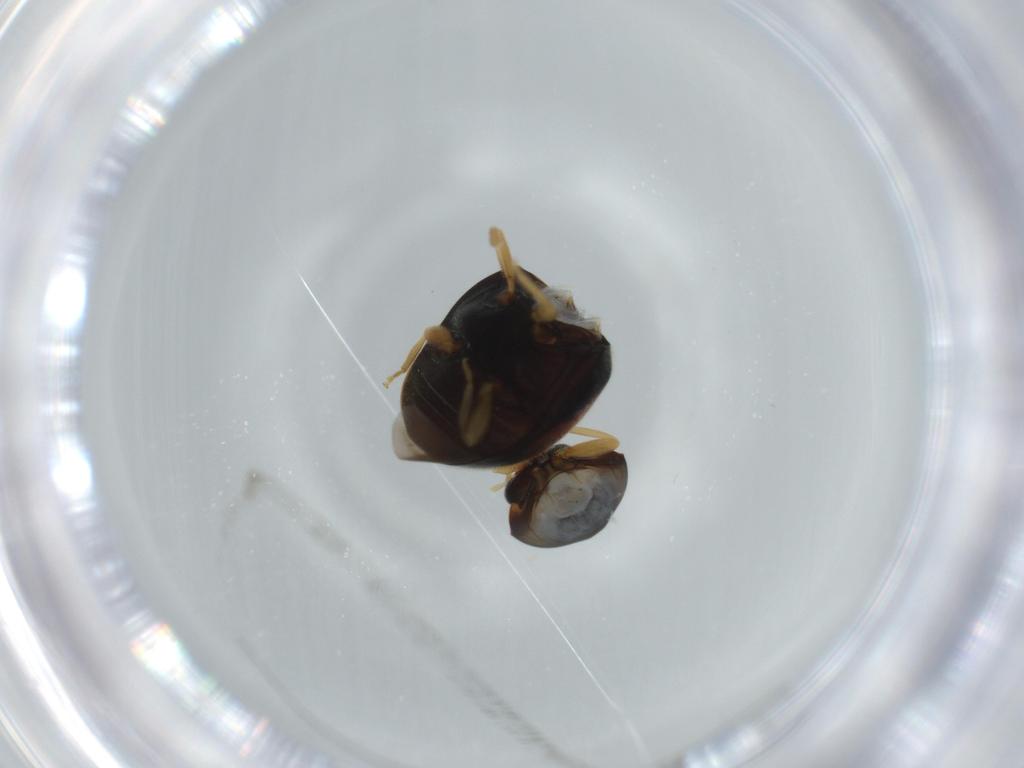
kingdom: Animalia
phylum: Arthropoda
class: Insecta
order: Coleoptera
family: Coccinellidae
